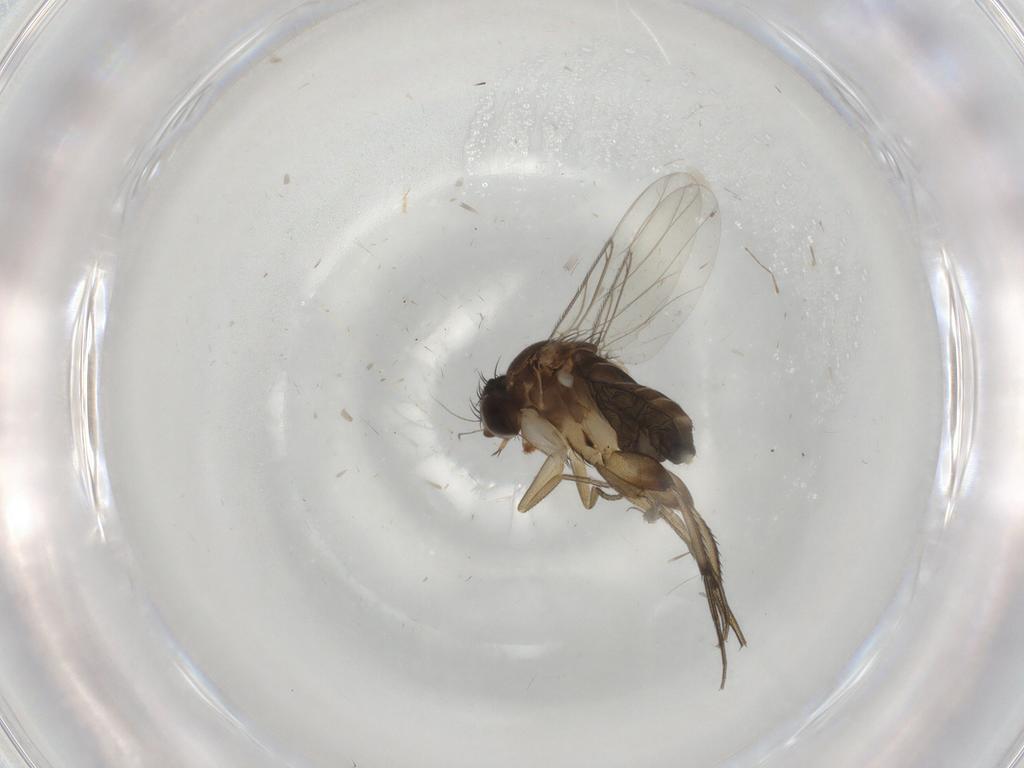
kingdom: Animalia
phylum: Arthropoda
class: Insecta
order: Diptera
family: Phoridae
